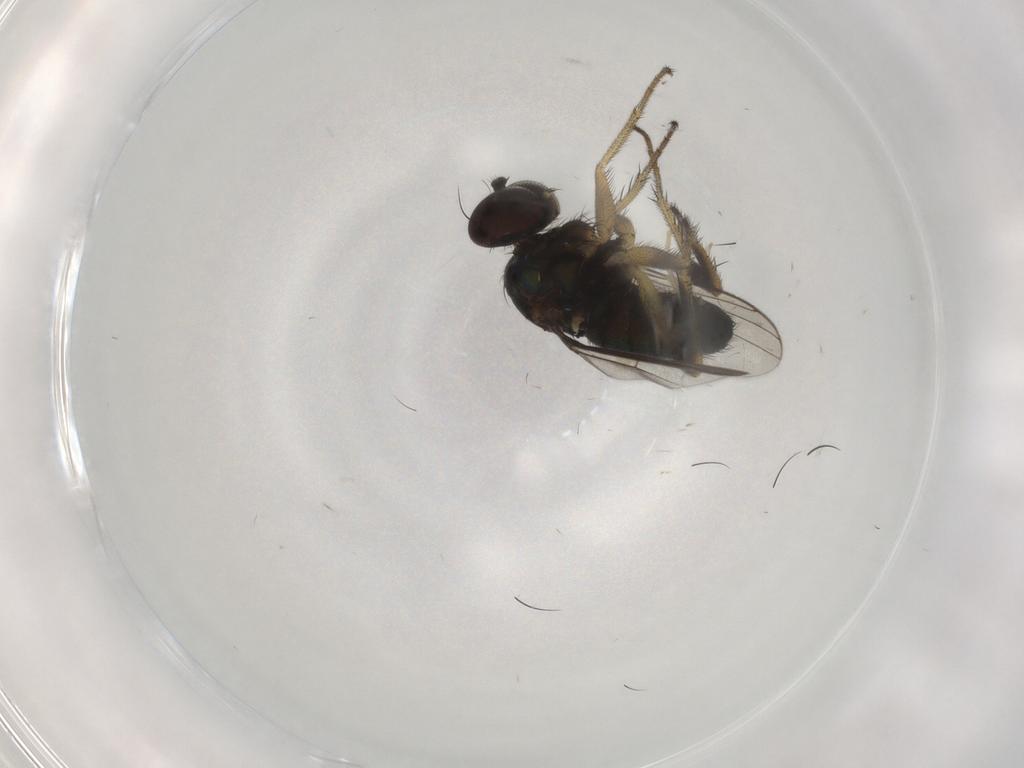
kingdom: Animalia
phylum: Arthropoda
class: Insecta
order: Diptera
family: Dolichopodidae
